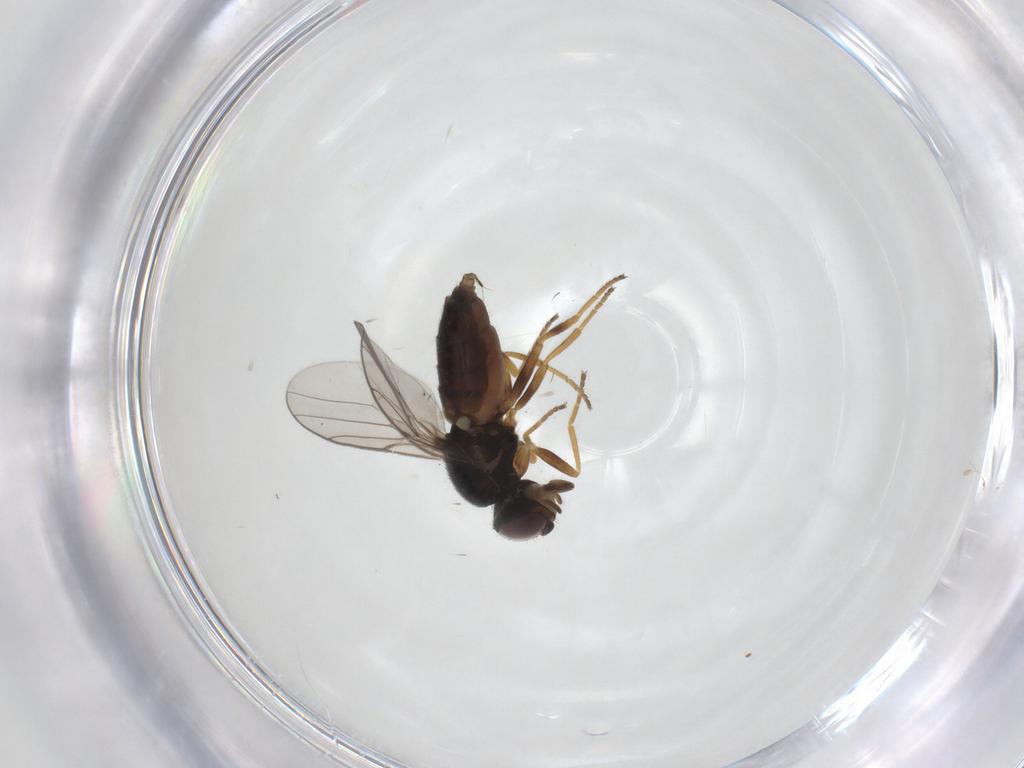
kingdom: Animalia
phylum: Arthropoda
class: Insecta
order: Diptera
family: Chloropidae
